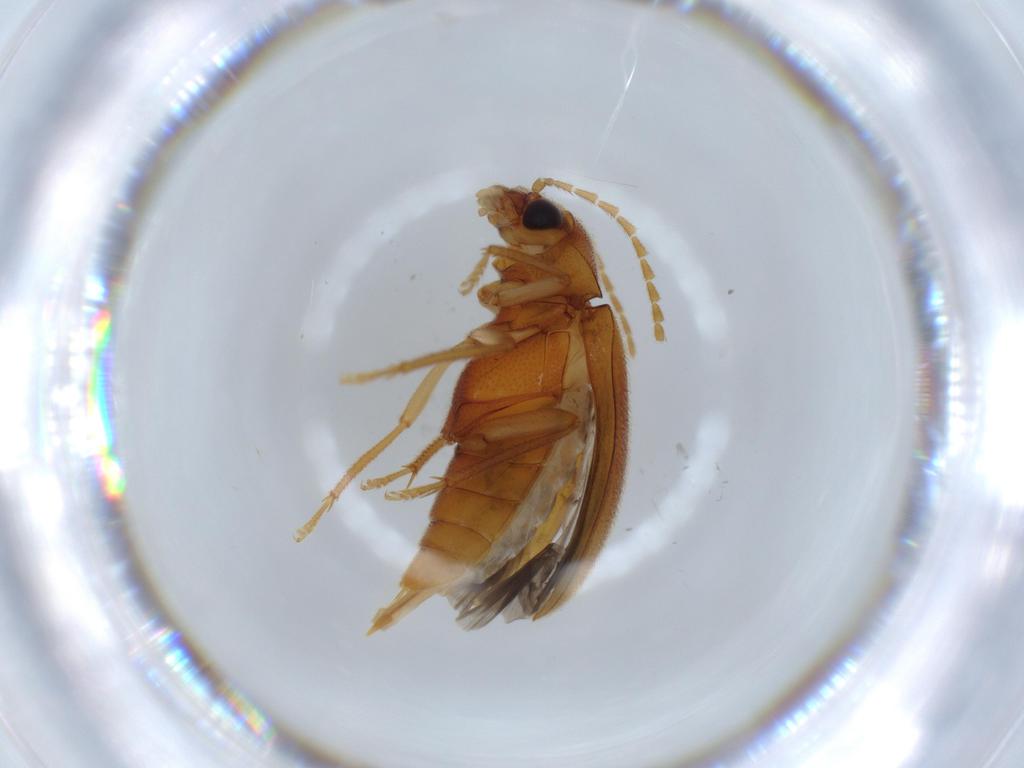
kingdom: Animalia
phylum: Arthropoda
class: Insecta
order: Coleoptera
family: Ptilodactylidae
